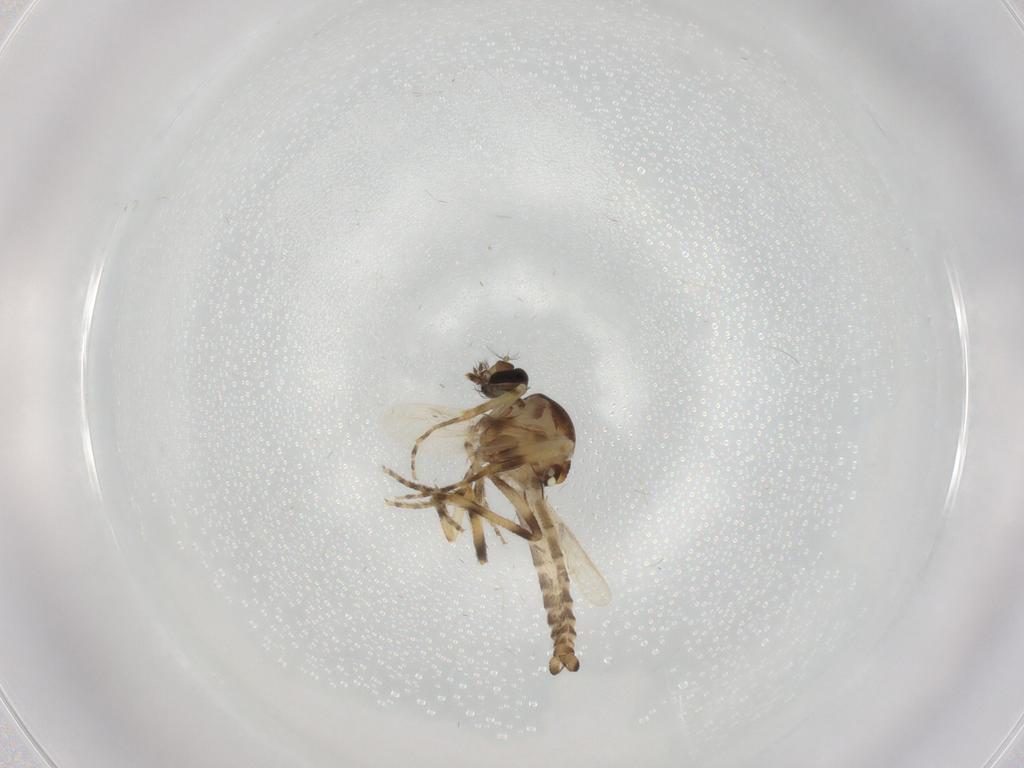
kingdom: Animalia
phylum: Arthropoda
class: Insecta
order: Diptera
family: Ceratopogonidae
